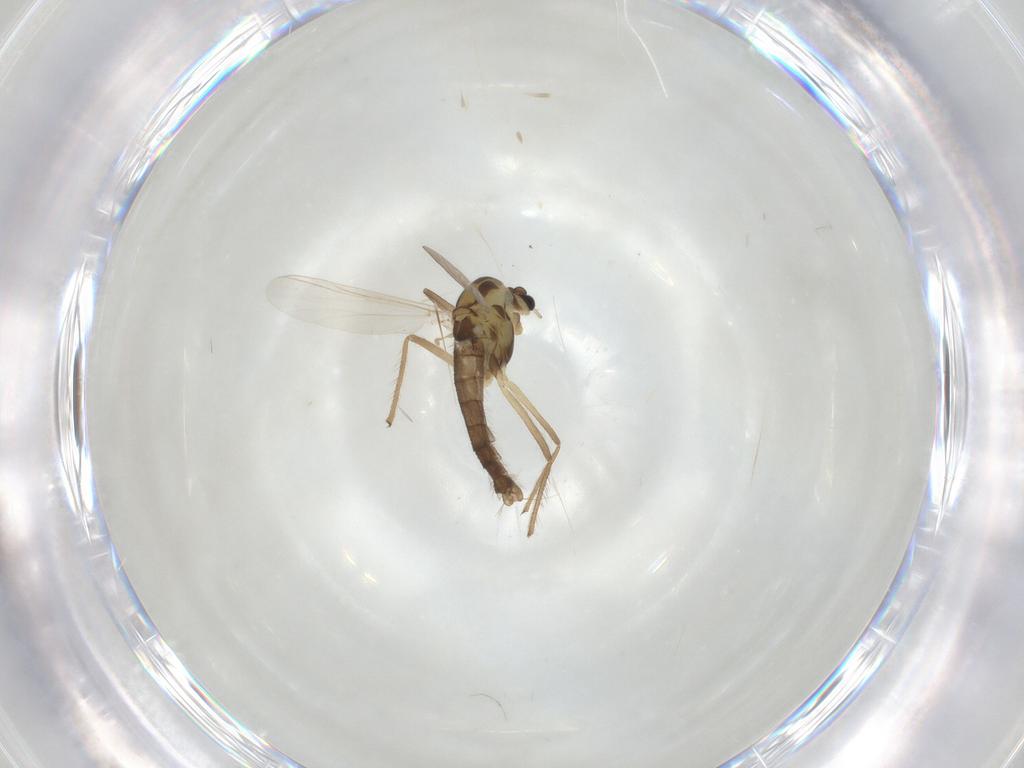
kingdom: Animalia
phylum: Arthropoda
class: Insecta
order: Diptera
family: Chironomidae
